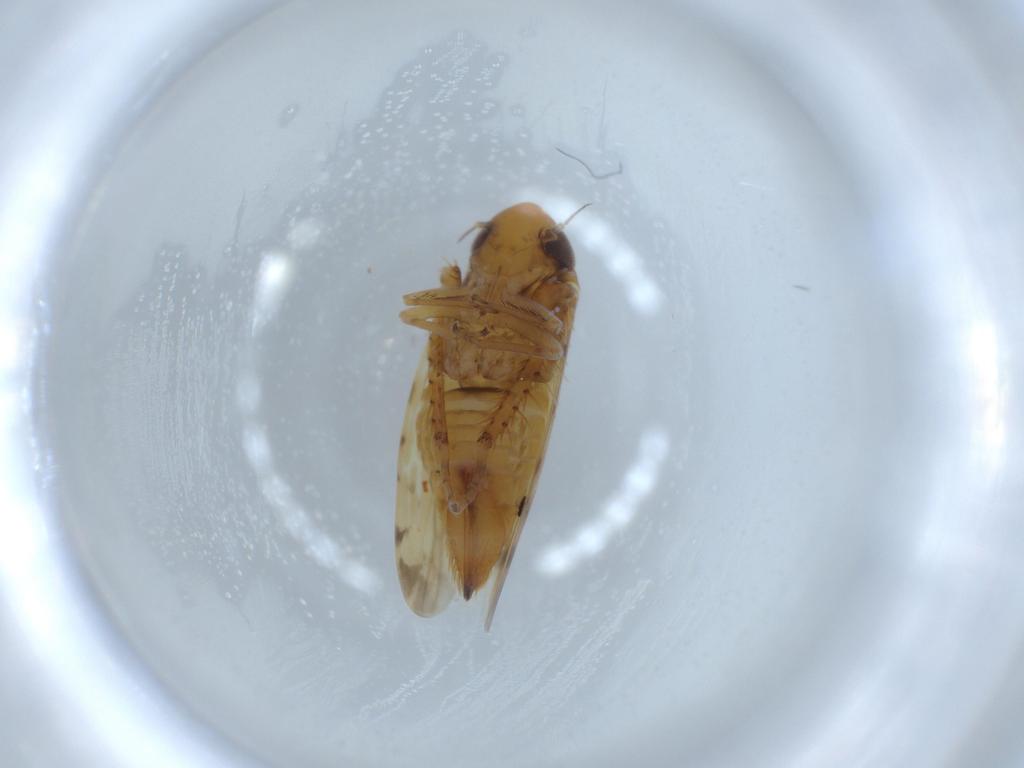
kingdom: Animalia
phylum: Arthropoda
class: Insecta
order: Hemiptera
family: Cicadellidae
